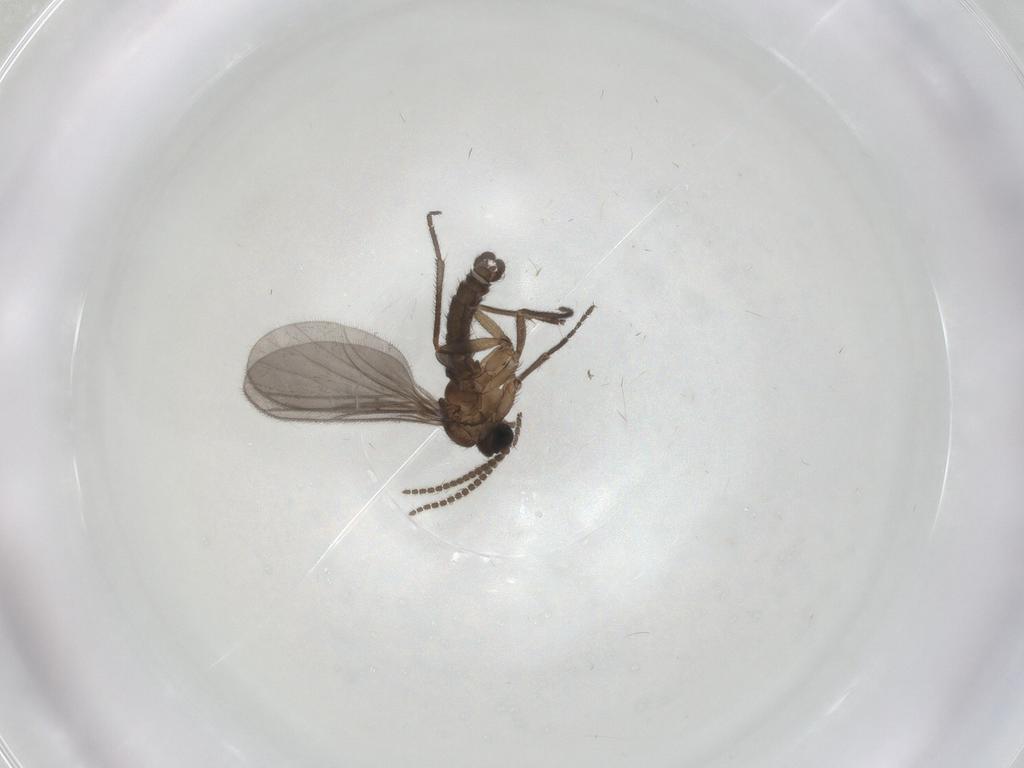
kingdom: Animalia
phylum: Arthropoda
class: Insecta
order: Diptera
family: Sciaridae
